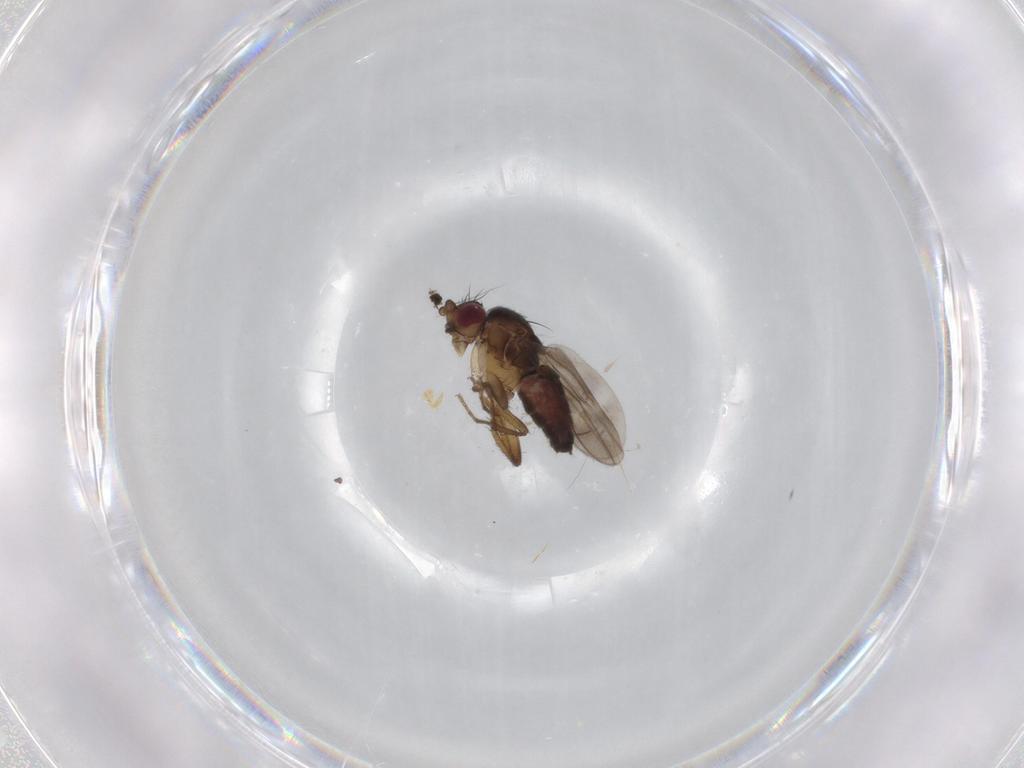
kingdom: Animalia
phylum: Arthropoda
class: Insecta
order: Diptera
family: Sphaeroceridae
